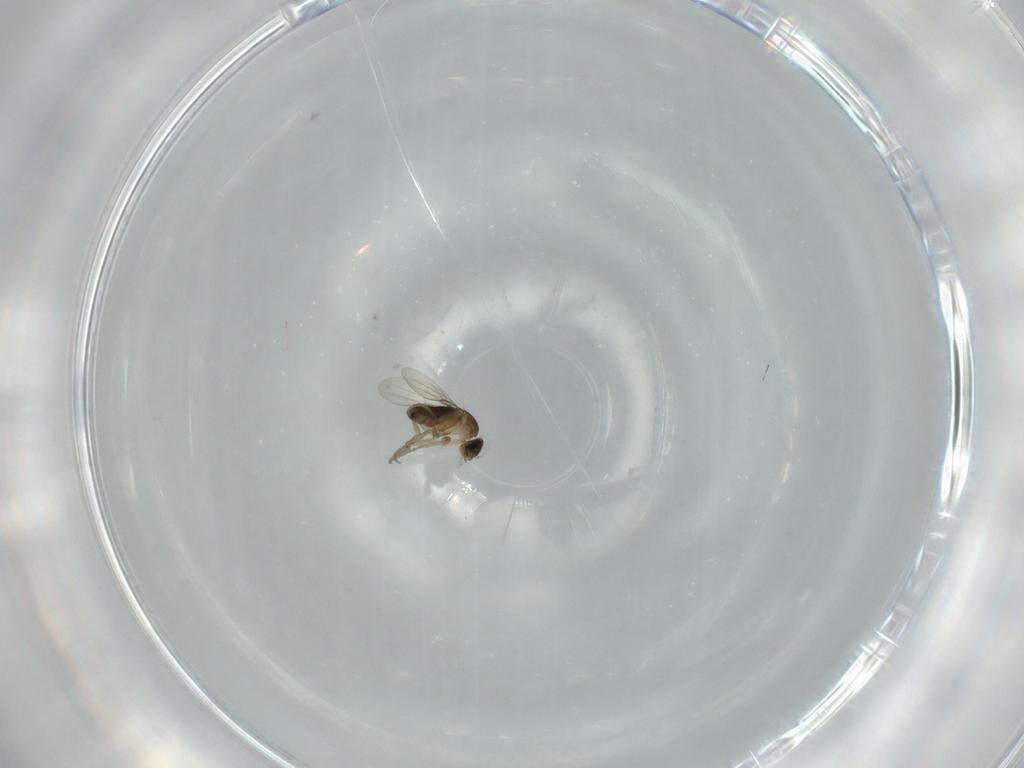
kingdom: Animalia
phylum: Arthropoda
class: Insecta
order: Diptera
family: Phoridae
